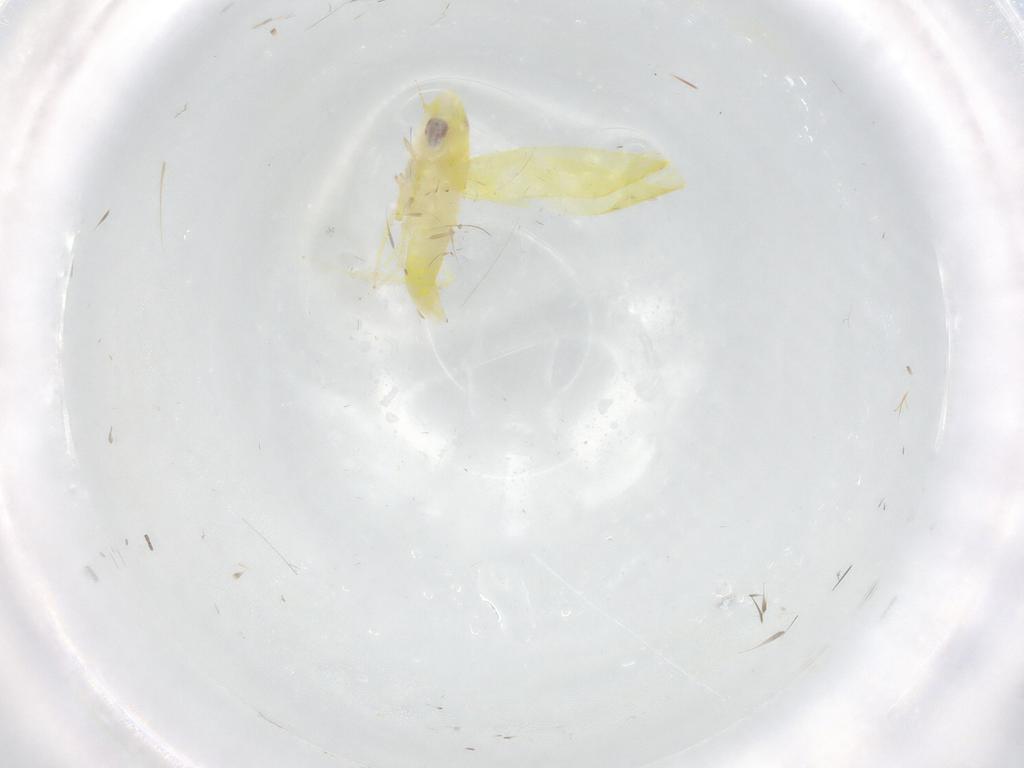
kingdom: Animalia
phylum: Arthropoda
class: Insecta
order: Hemiptera
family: Cicadellidae
